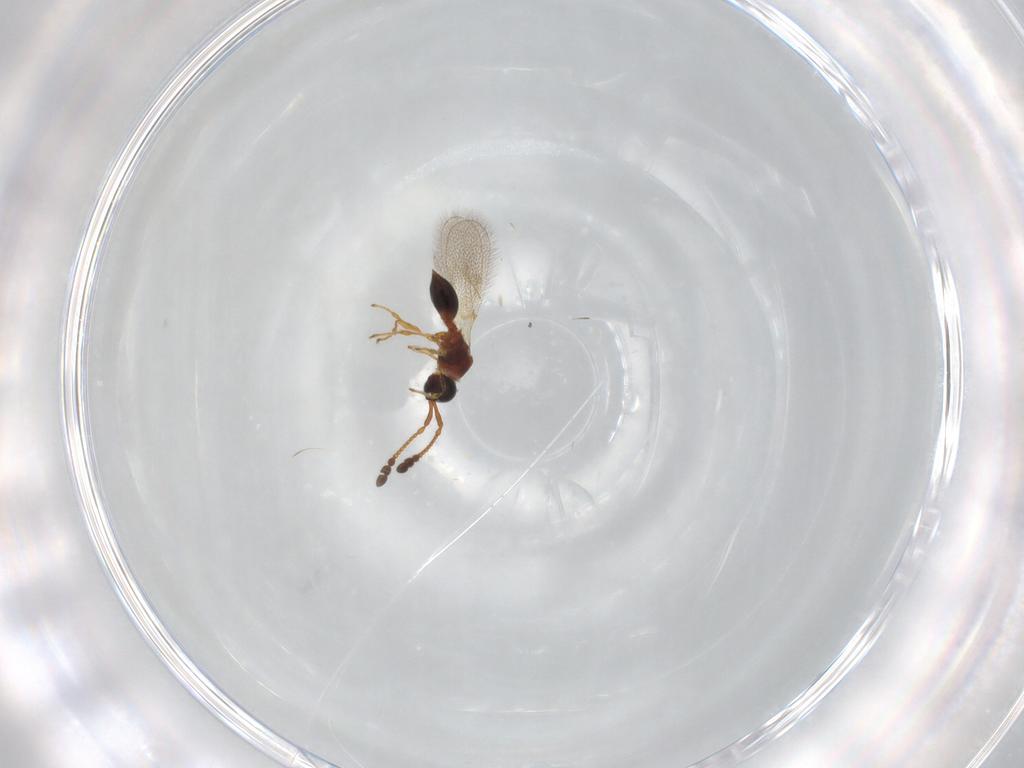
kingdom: Animalia
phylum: Arthropoda
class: Insecta
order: Hymenoptera
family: Diapriidae
